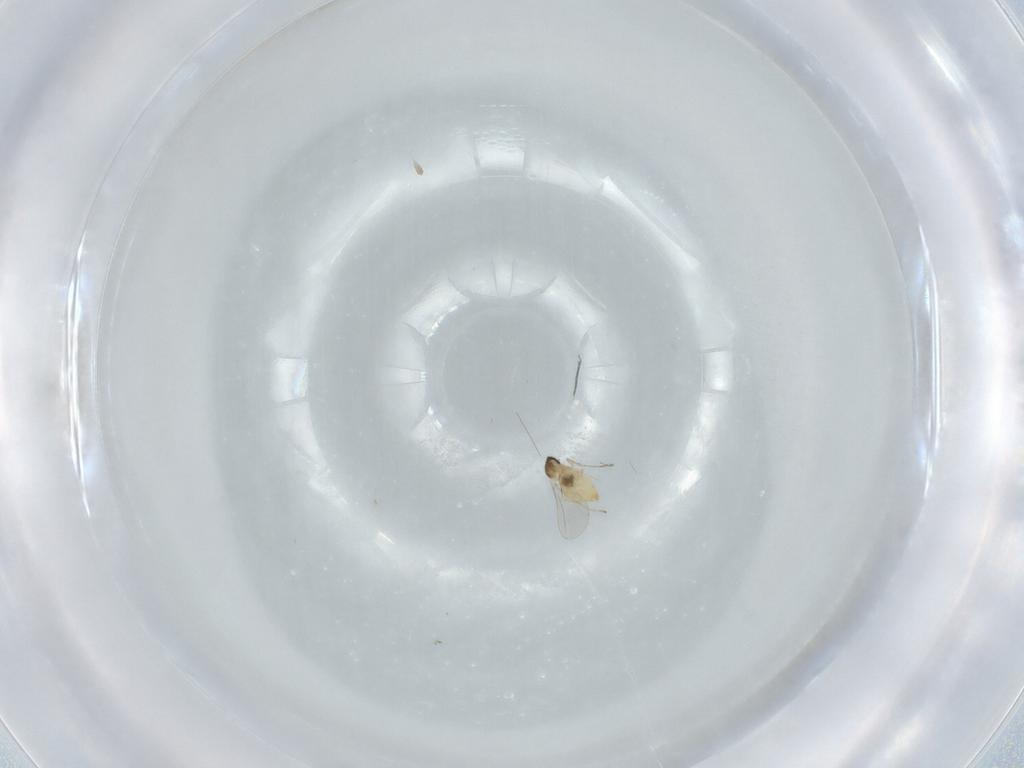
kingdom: Animalia
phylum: Arthropoda
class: Insecta
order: Diptera
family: Cecidomyiidae
